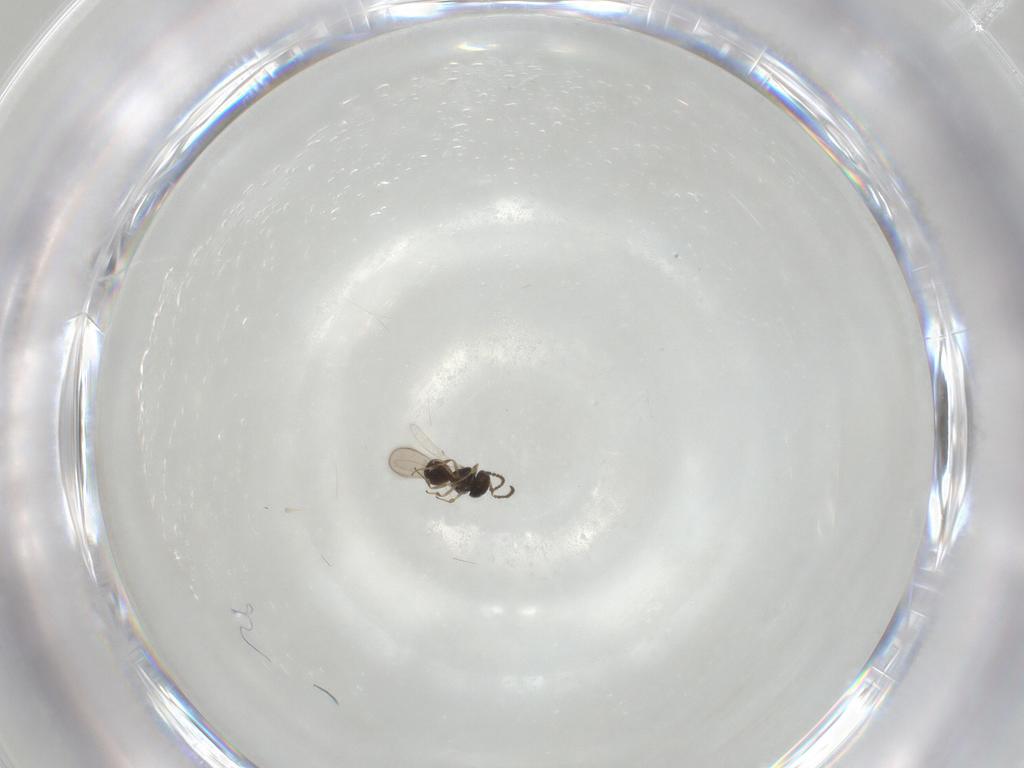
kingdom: Animalia
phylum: Arthropoda
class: Insecta
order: Hymenoptera
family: Scelionidae
